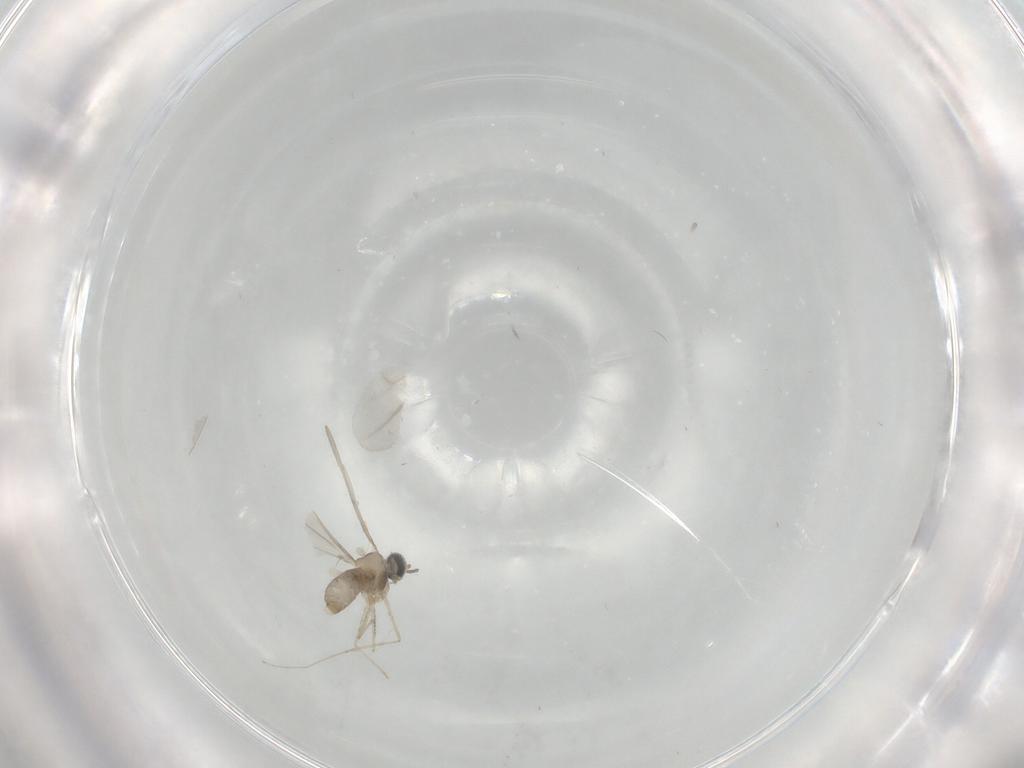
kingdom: Animalia
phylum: Arthropoda
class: Insecta
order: Diptera
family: Cecidomyiidae
